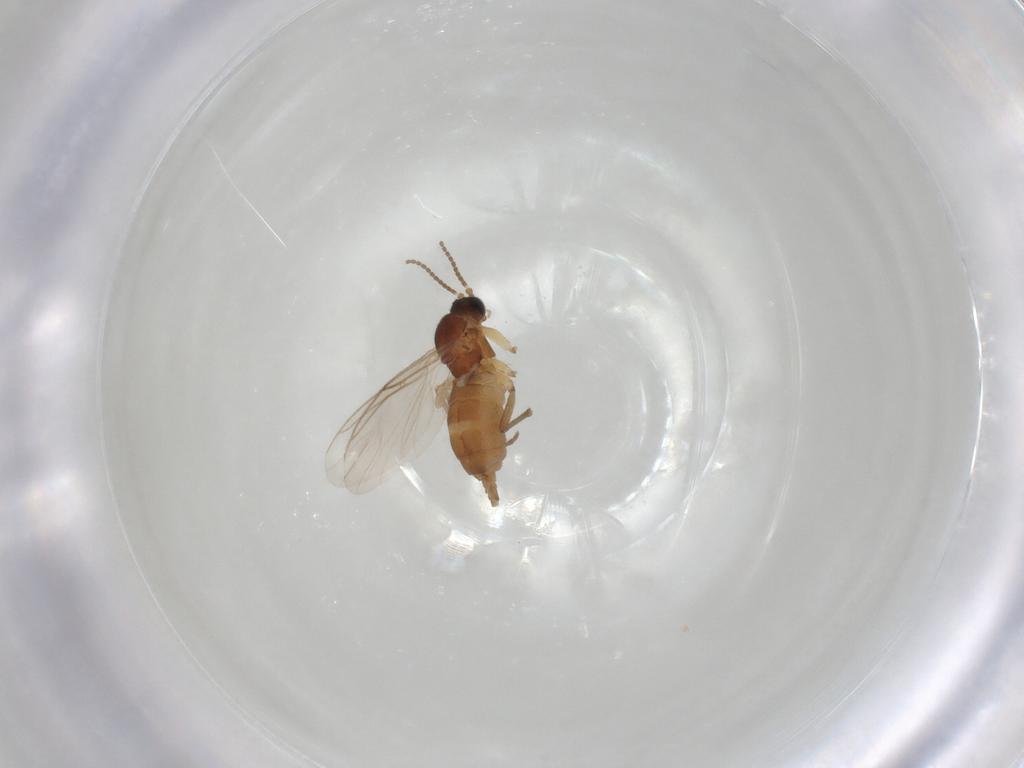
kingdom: Animalia
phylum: Arthropoda
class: Insecta
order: Diptera
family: Sciaridae
